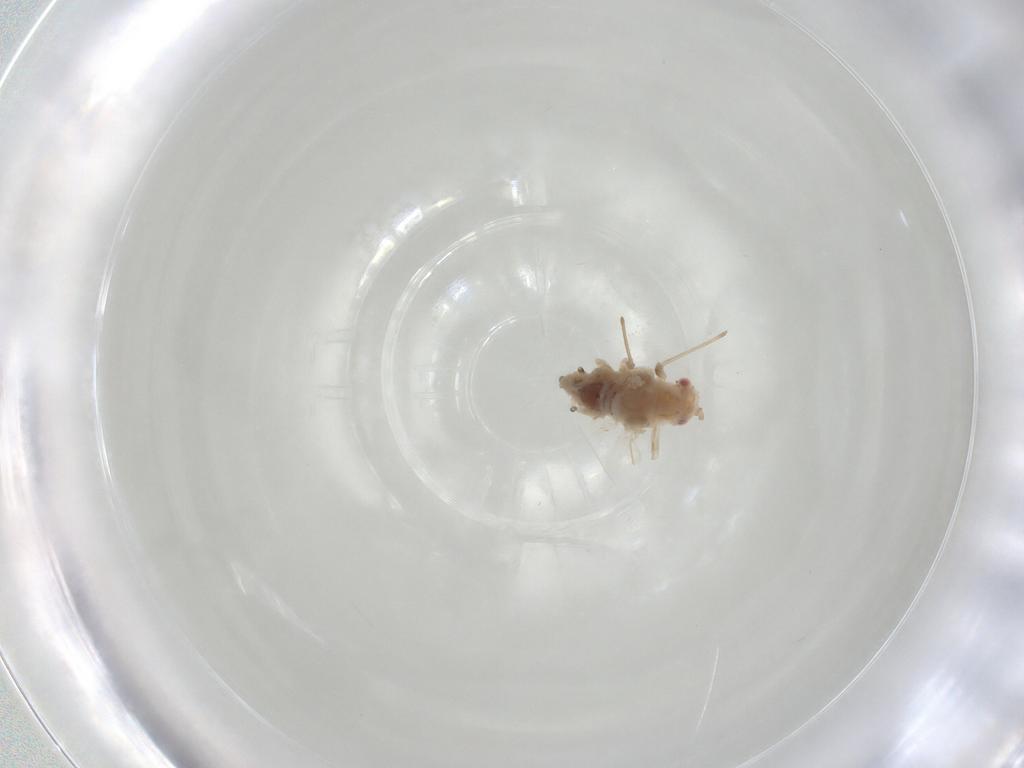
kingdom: Animalia
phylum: Arthropoda
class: Insecta
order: Hemiptera
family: Aphididae
